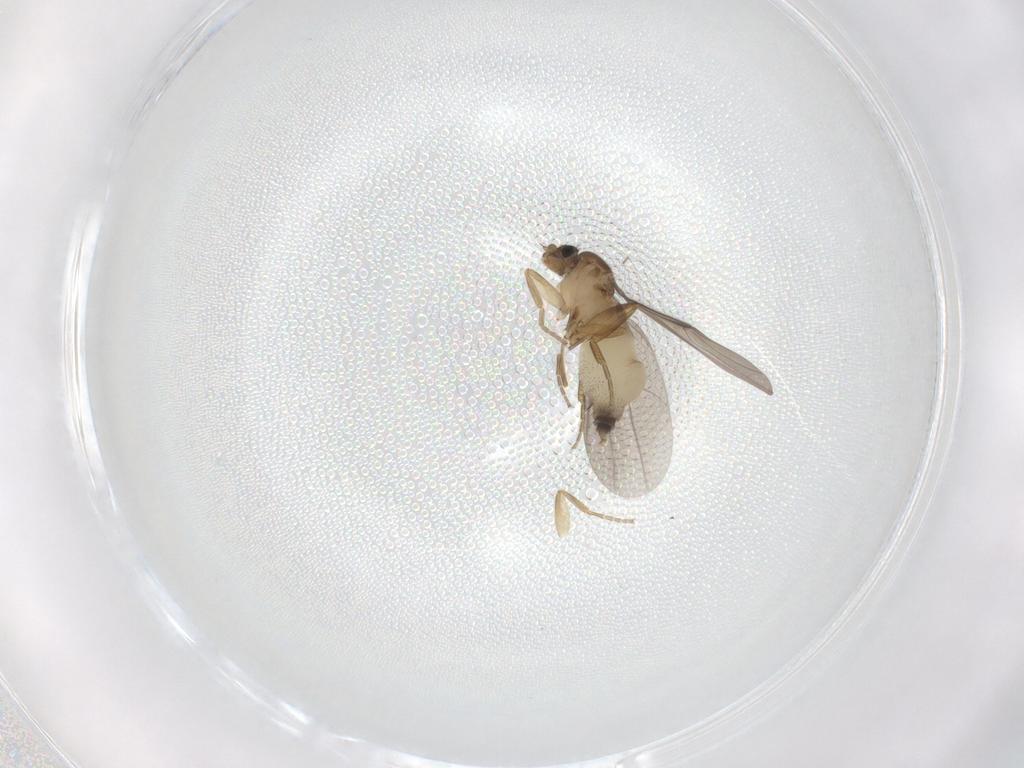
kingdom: Animalia
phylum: Arthropoda
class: Insecta
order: Diptera
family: Phoridae
